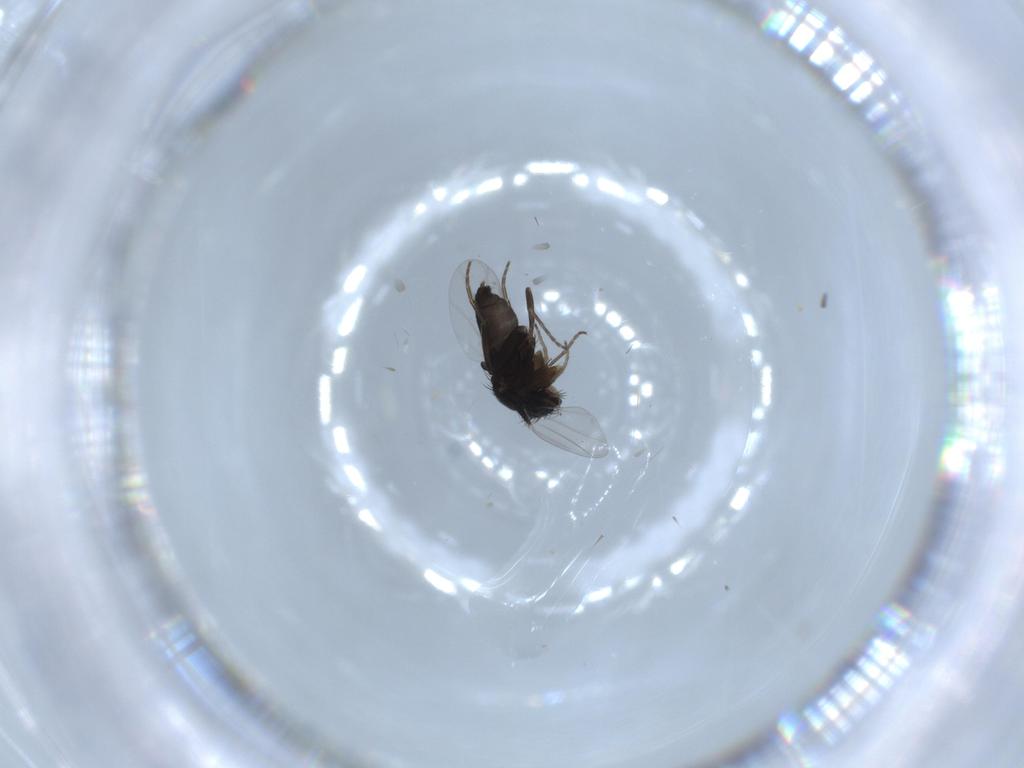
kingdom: Animalia
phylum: Arthropoda
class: Insecta
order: Diptera
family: Phoridae
